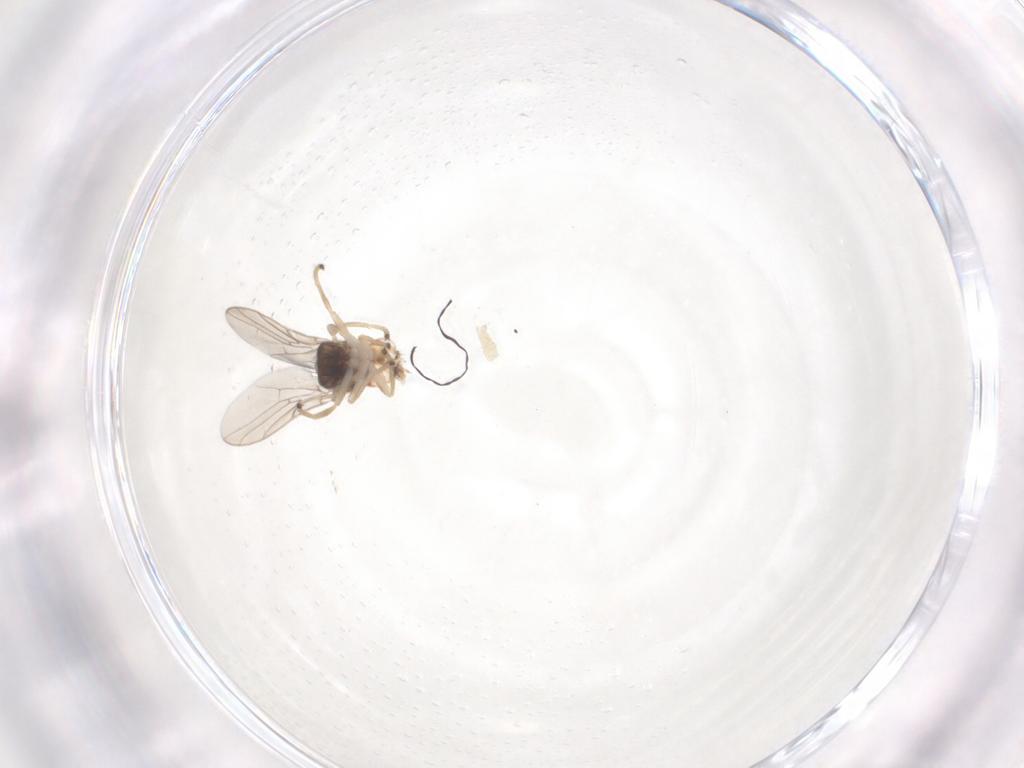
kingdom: Animalia
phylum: Arthropoda
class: Insecta
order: Diptera
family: Chloropidae
